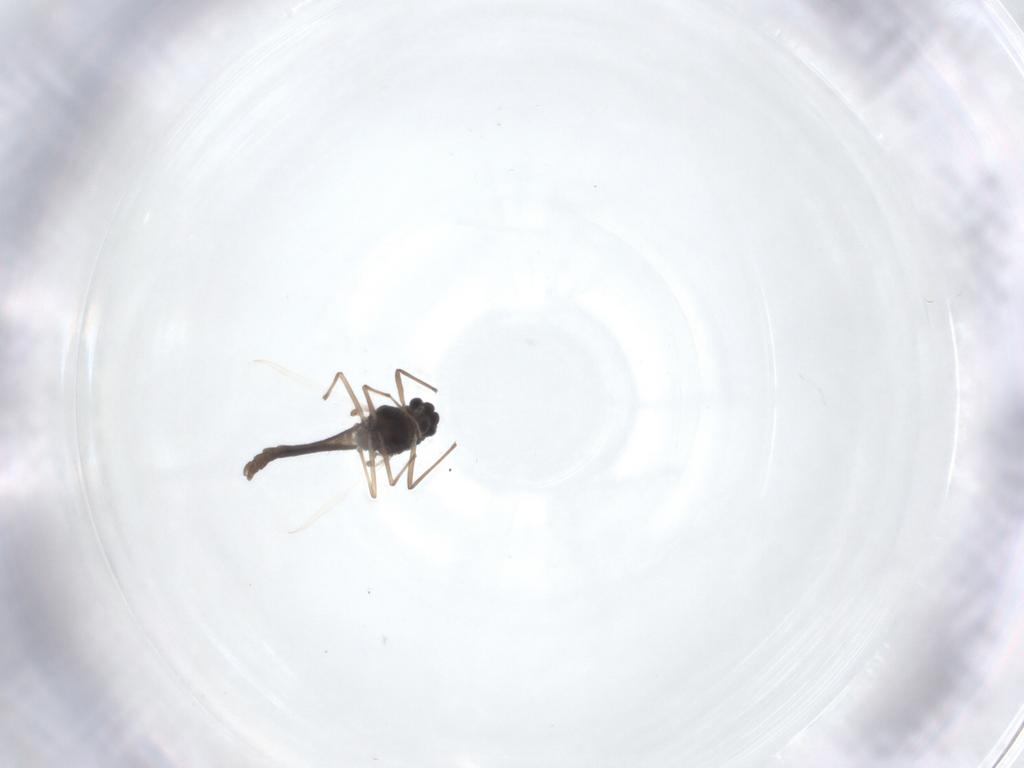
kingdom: Animalia
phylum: Arthropoda
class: Insecta
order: Diptera
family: Chironomidae
